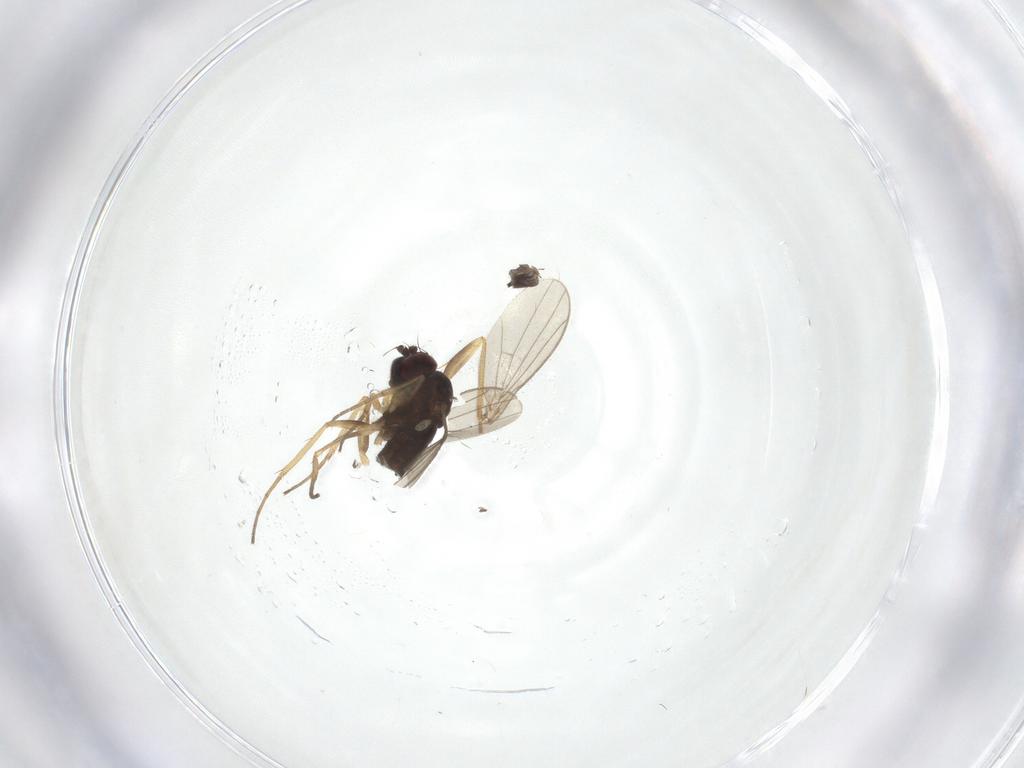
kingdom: Animalia
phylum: Arthropoda
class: Insecta
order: Diptera
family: Dolichopodidae
